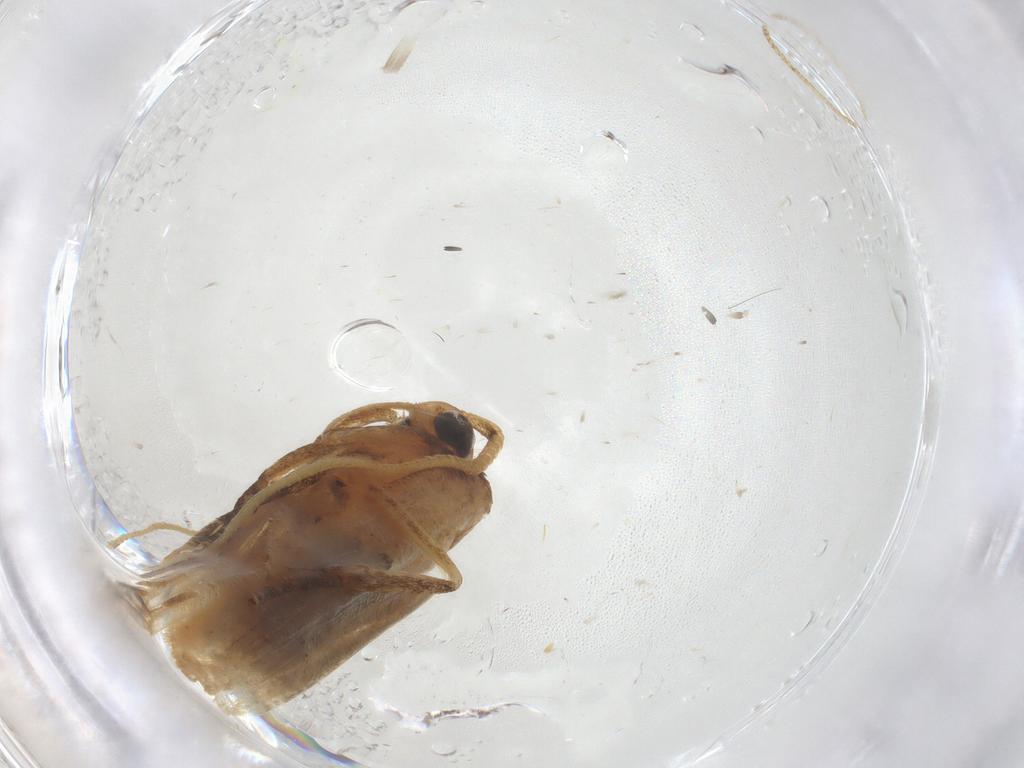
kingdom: Animalia
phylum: Arthropoda
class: Insecta
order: Lepidoptera
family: Lecithoceridae
